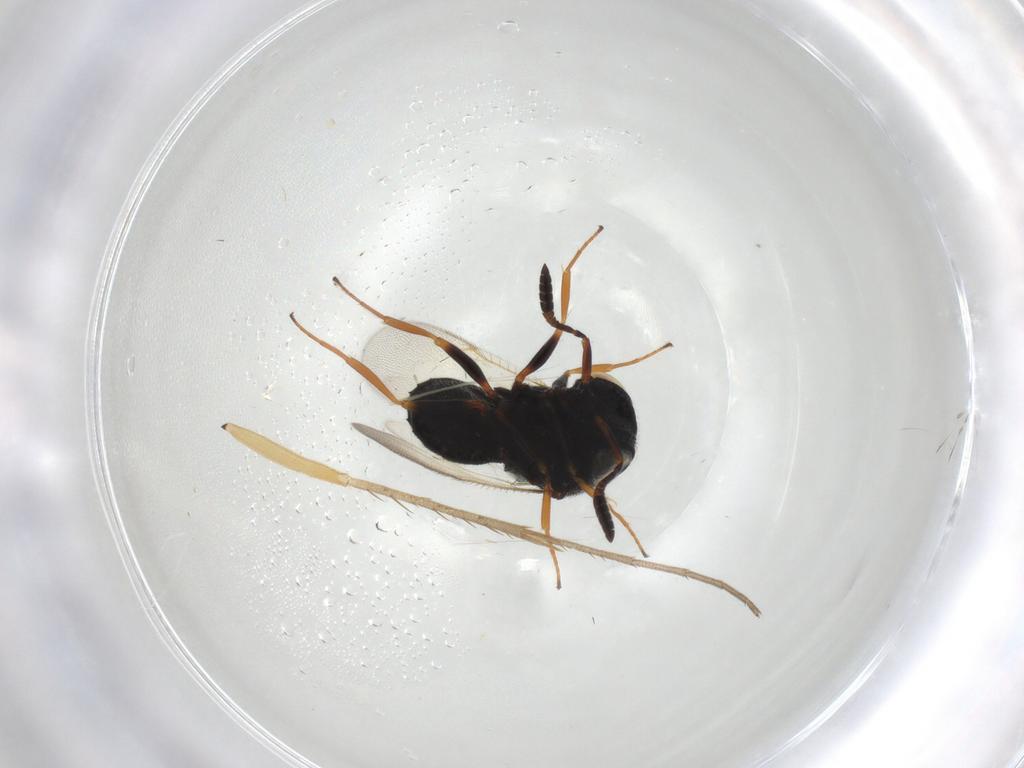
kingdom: Animalia
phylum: Arthropoda
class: Insecta
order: Hymenoptera
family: Scelionidae
